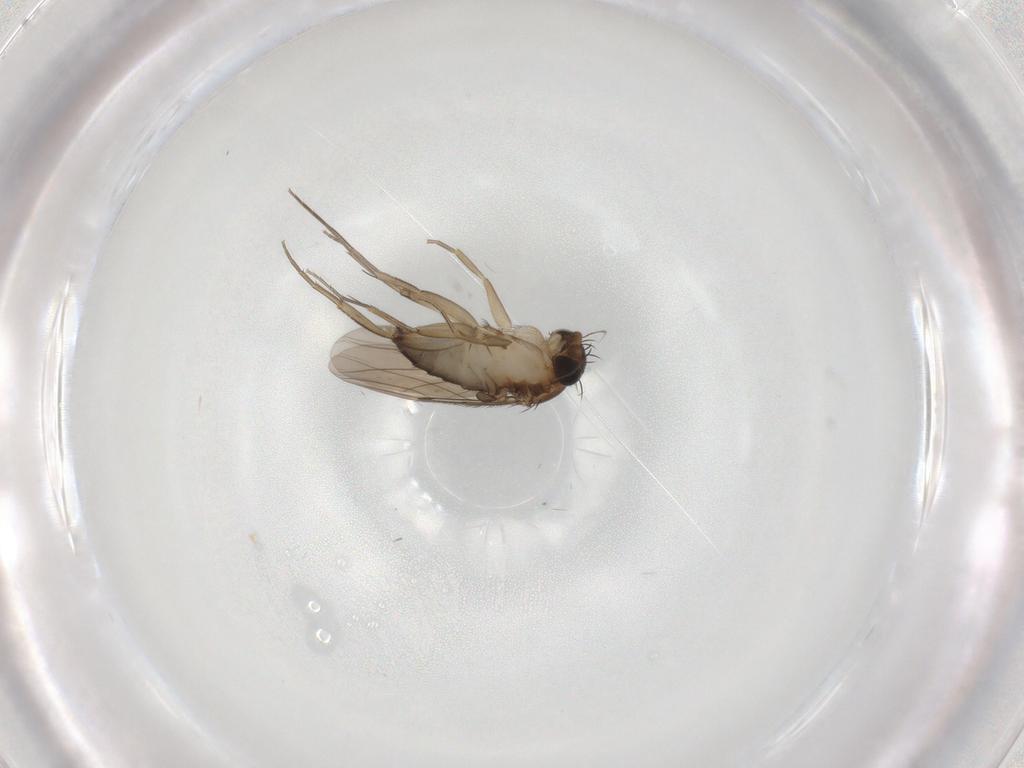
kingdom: Animalia
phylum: Arthropoda
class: Insecta
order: Diptera
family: Phoridae
